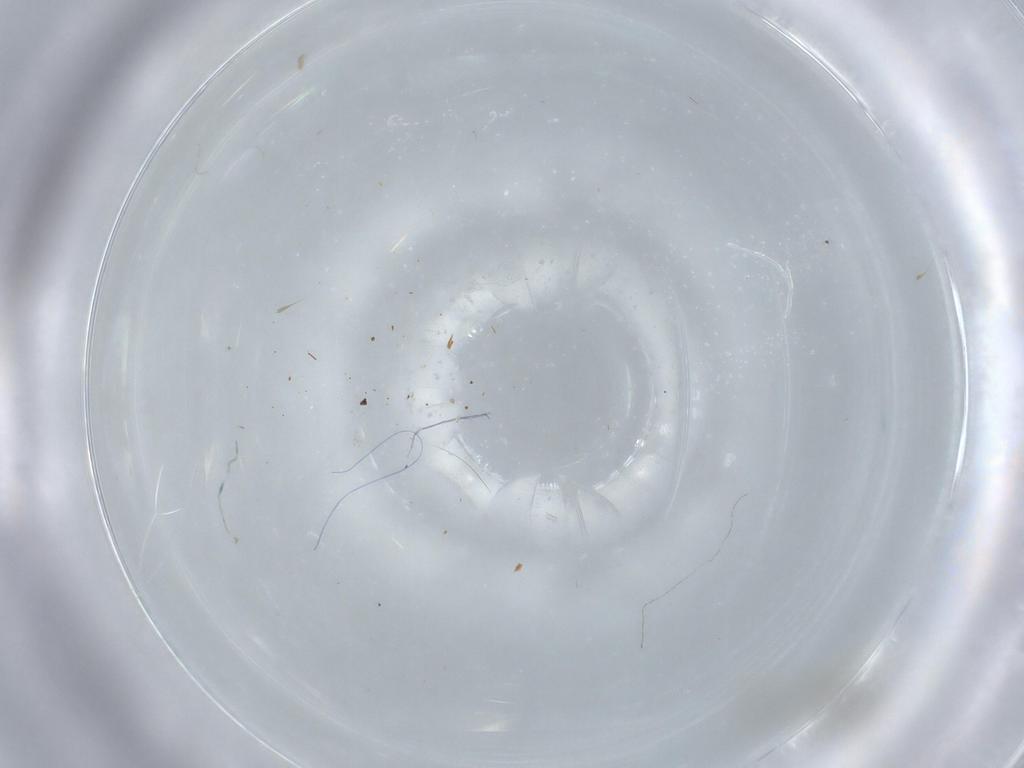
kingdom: Animalia
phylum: Arthropoda
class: Insecta
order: Diptera
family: Cecidomyiidae
